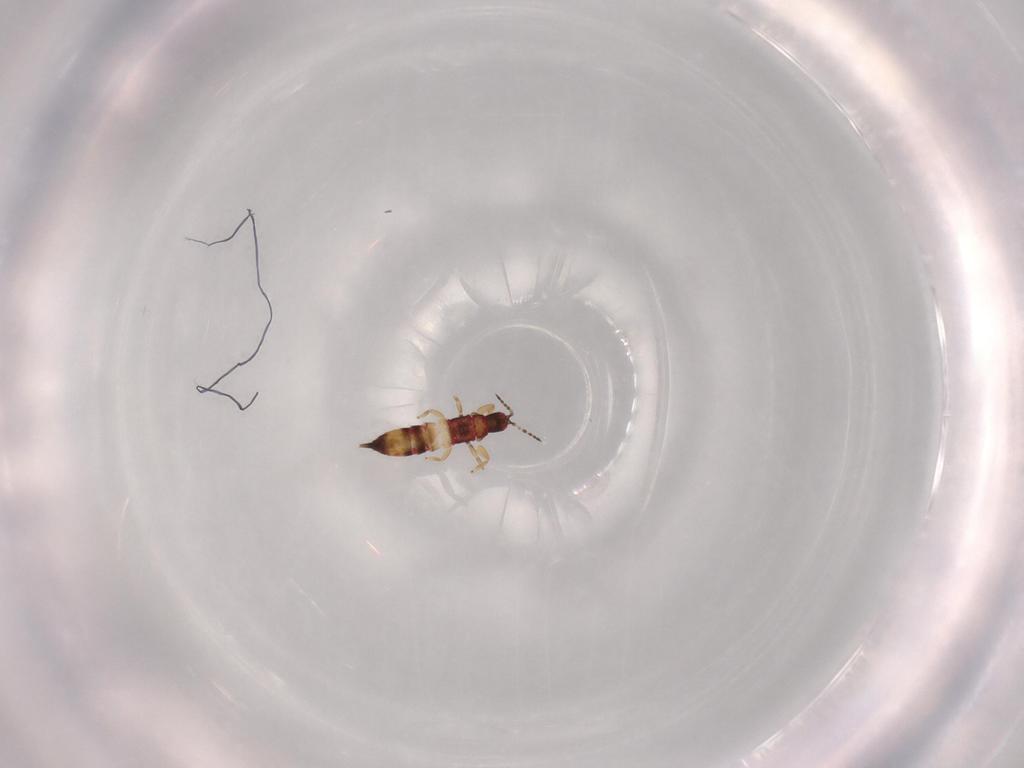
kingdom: Animalia
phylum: Arthropoda
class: Insecta
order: Thysanoptera
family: Phlaeothripidae
